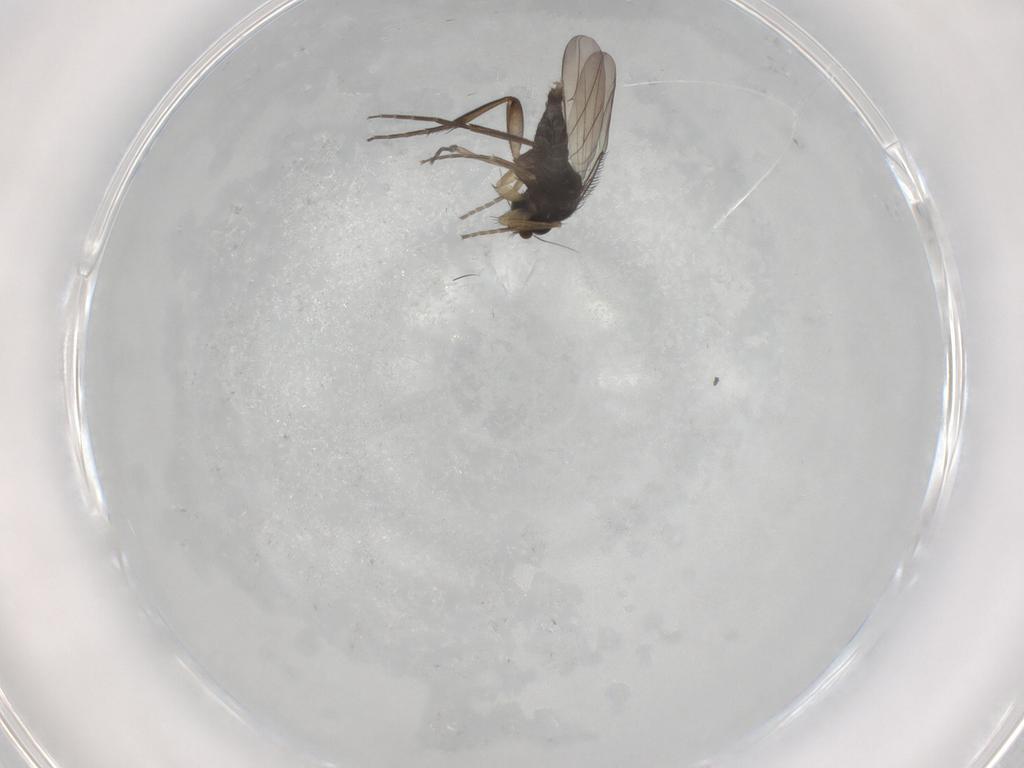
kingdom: Animalia
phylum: Arthropoda
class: Insecta
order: Diptera
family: Phoridae
